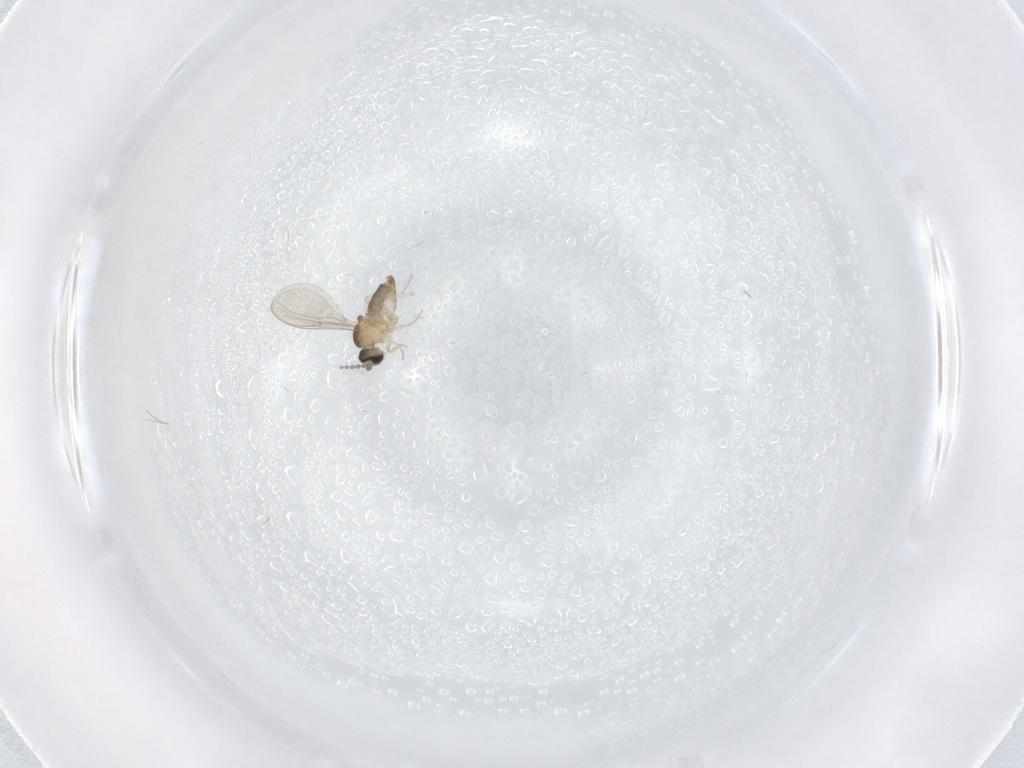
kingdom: Animalia
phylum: Arthropoda
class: Insecta
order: Diptera
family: Cecidomyiidae
